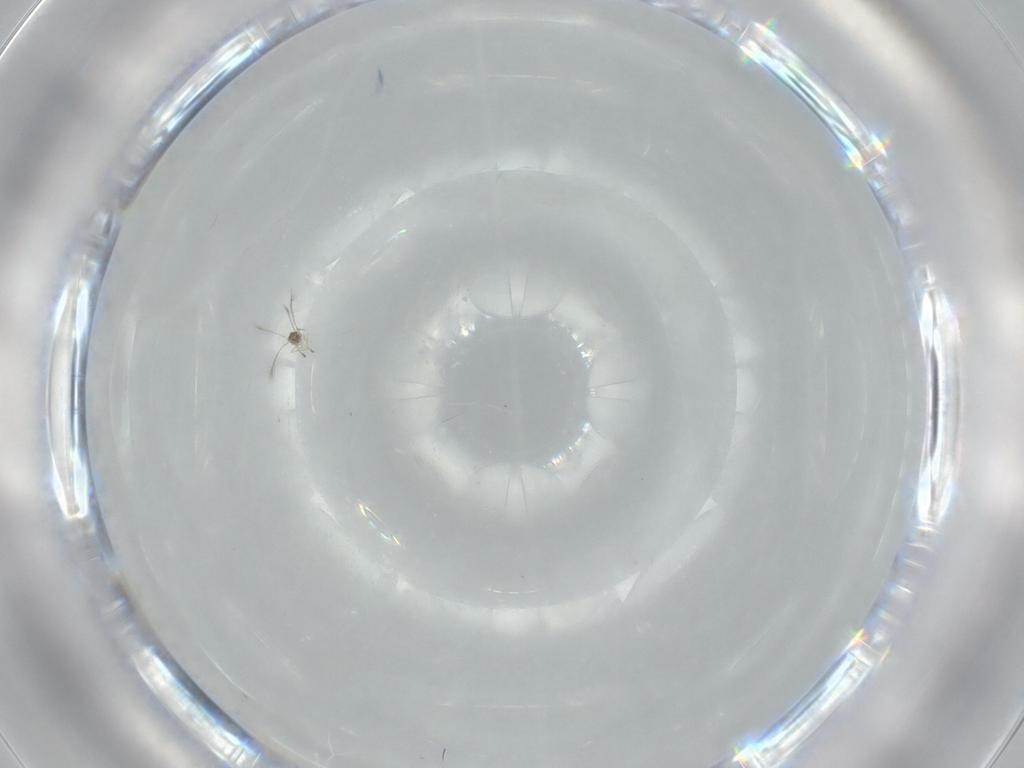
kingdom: Animalia
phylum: Arthropoda
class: Insecta
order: Hymenoptera
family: Mymaridae
